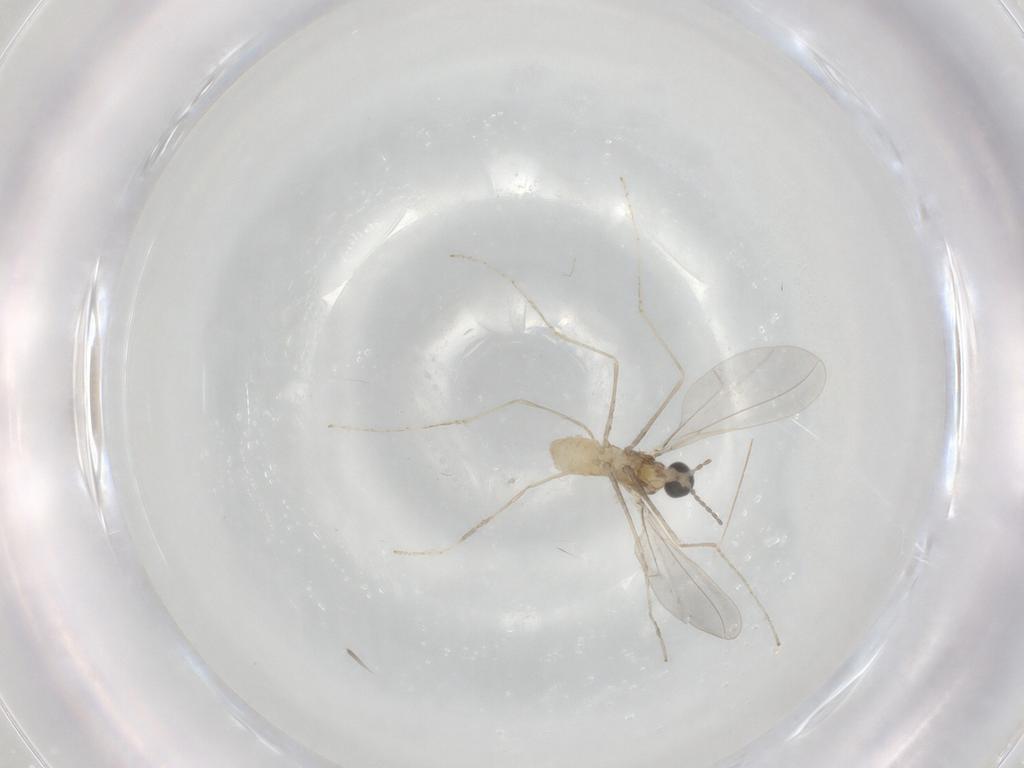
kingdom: Animalia
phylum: Arthropoda
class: Insecta
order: Diptera
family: Cecidomyiidae
